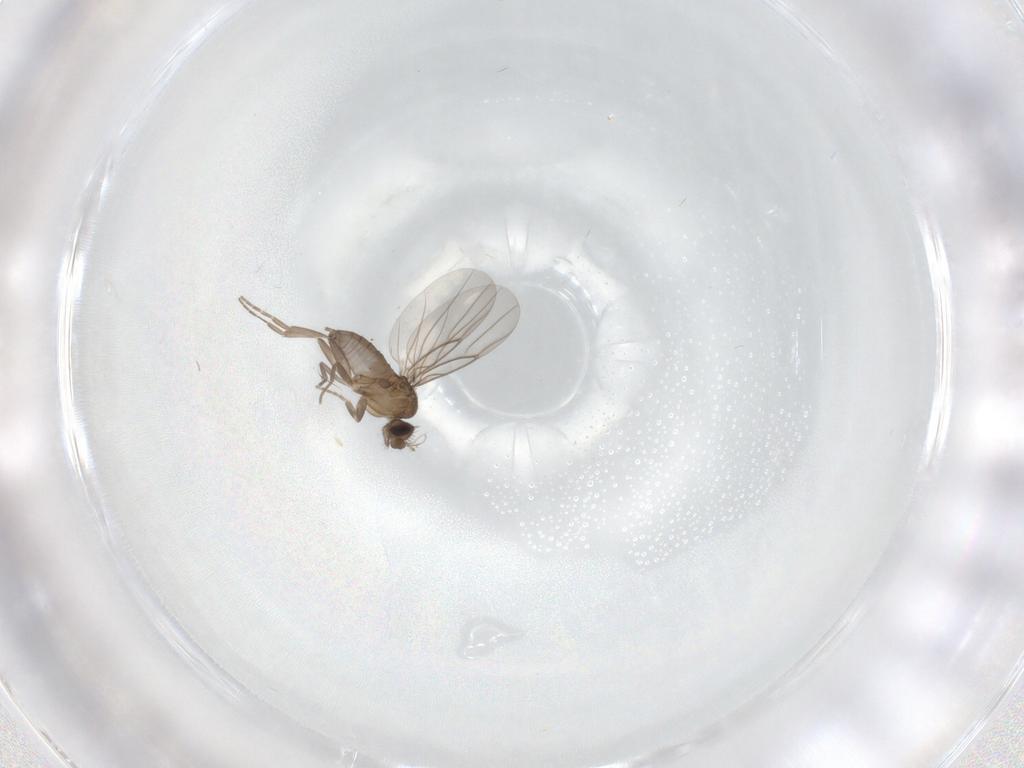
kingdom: Animalia
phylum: Arthropoda
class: Insecta
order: Diptera
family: Phoridae
